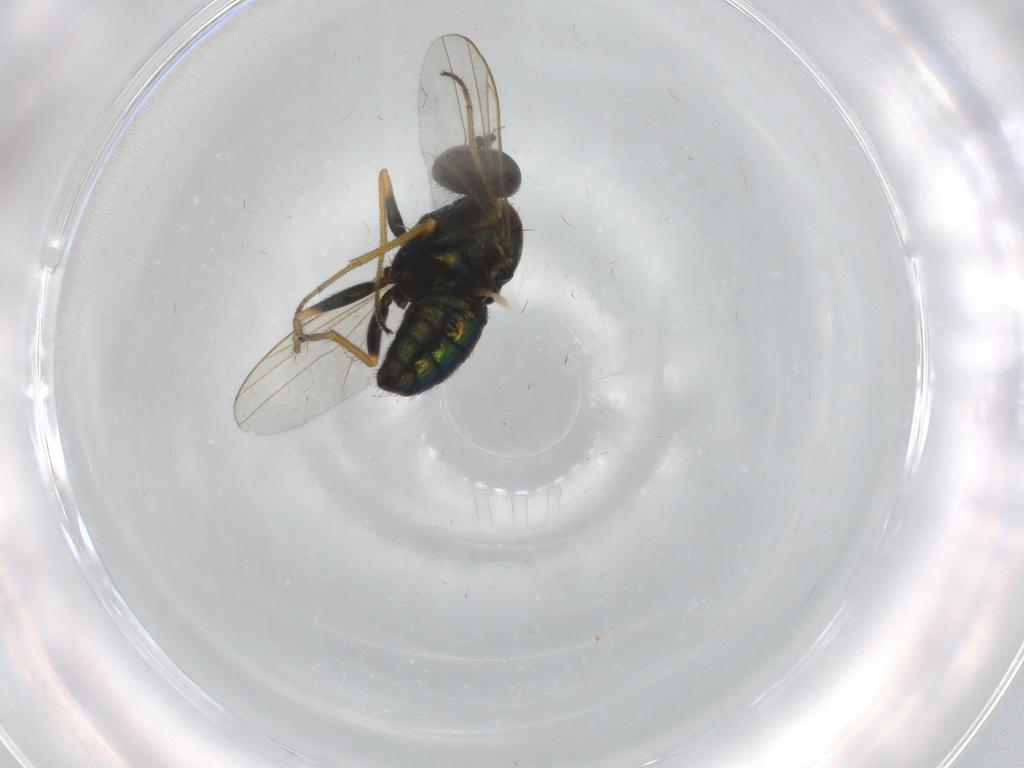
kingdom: Animalia
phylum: Arthropoda
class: Insecta
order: Diptera
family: Dolichopodidae
